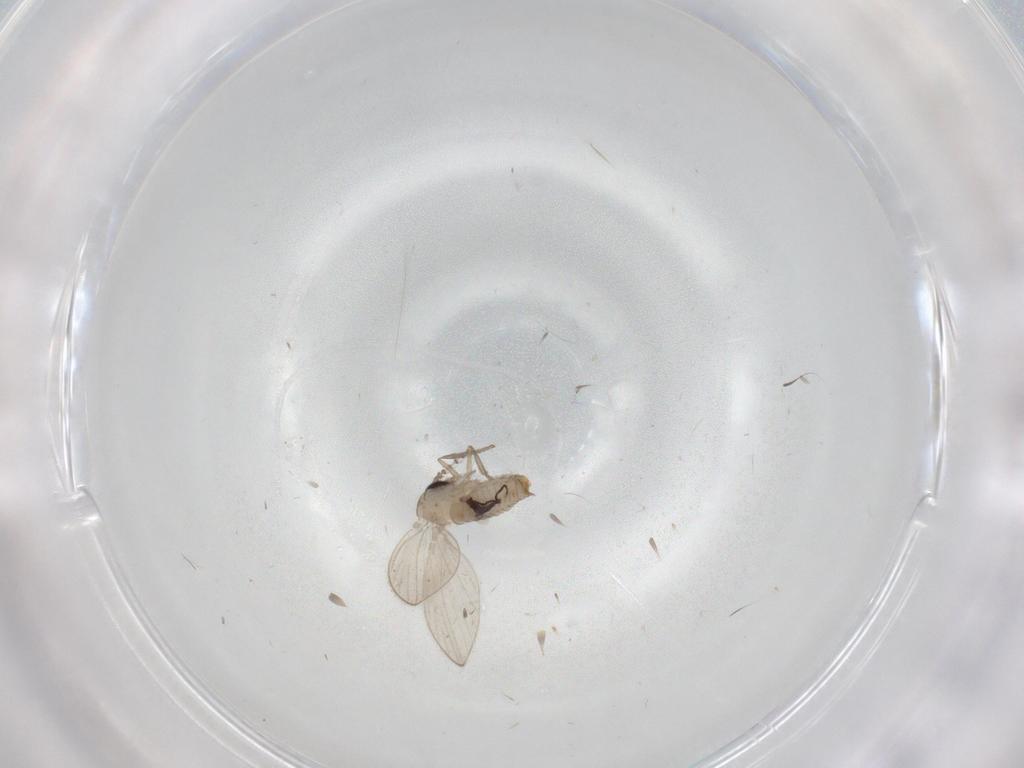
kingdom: Animalia
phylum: Arthropoda
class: Insecta
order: Diptera
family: Psychodidae
